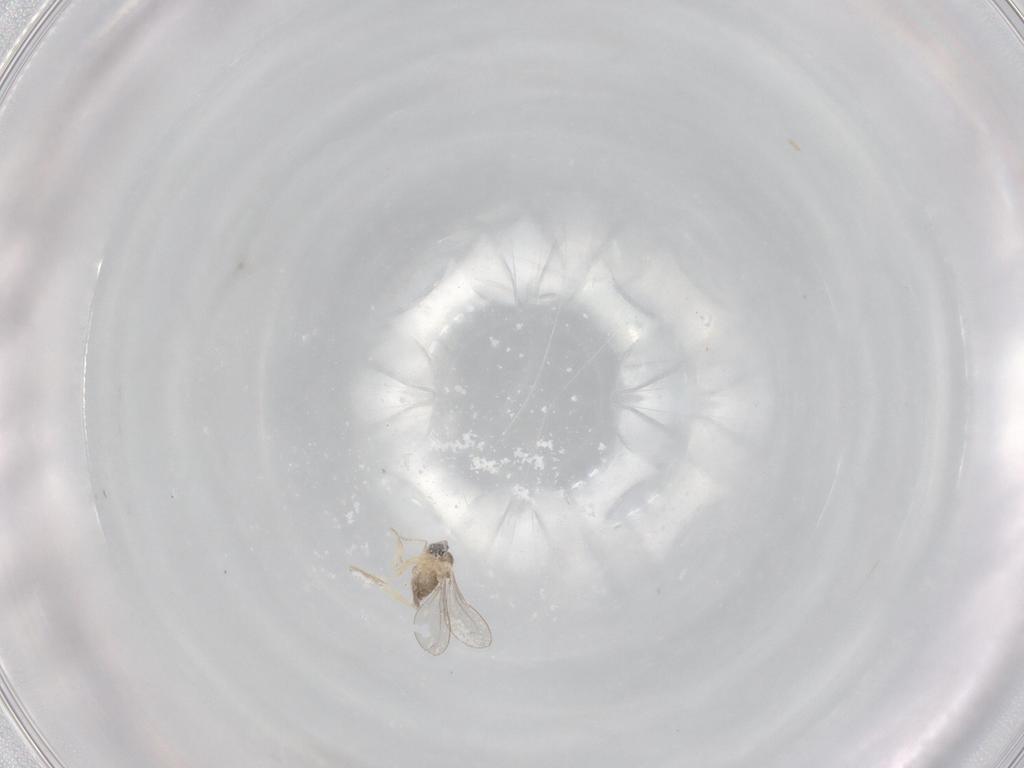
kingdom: Animalia
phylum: Arthropoda
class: Insecta
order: Diptera
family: Cecidomyiidae
